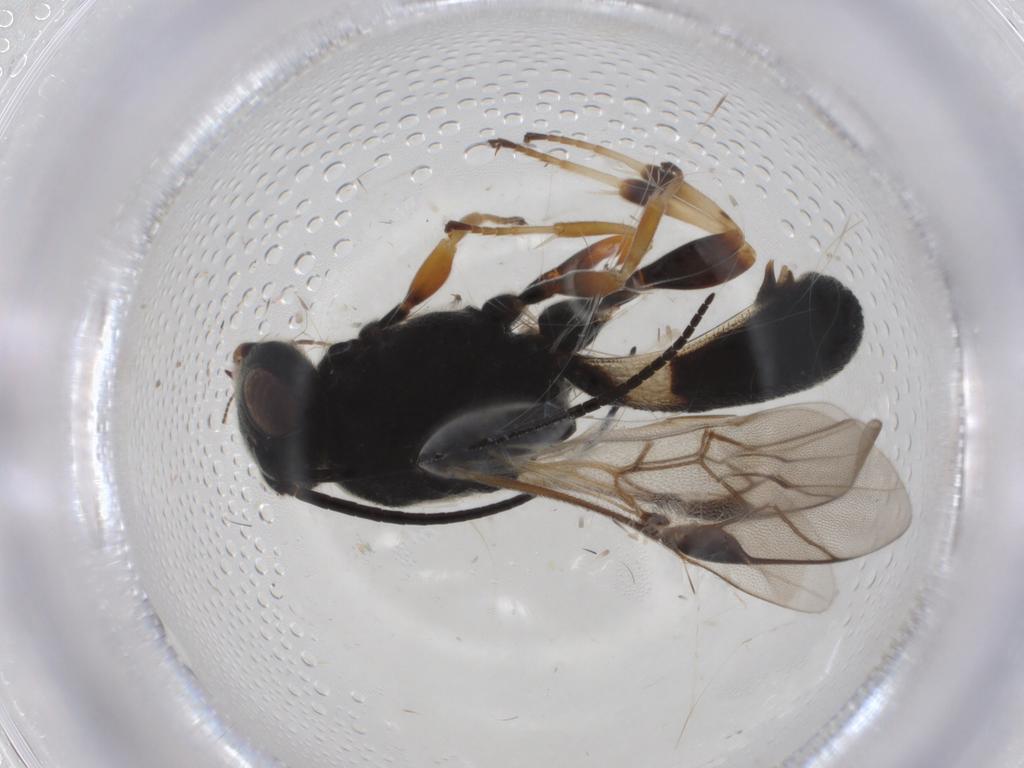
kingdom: Animalia
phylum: Arthropoda
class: Insecta
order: Hymenoptera
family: Braconidae
